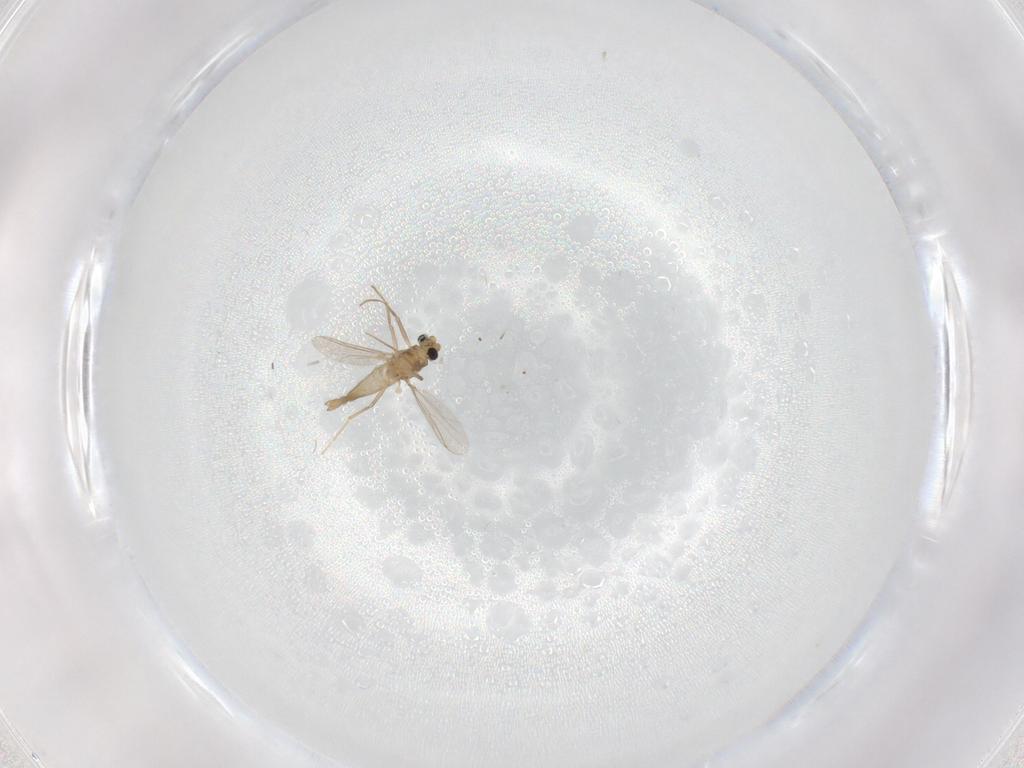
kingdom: Animalia
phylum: Arthropoda
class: Insecta
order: Diptera
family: Chironomidae
